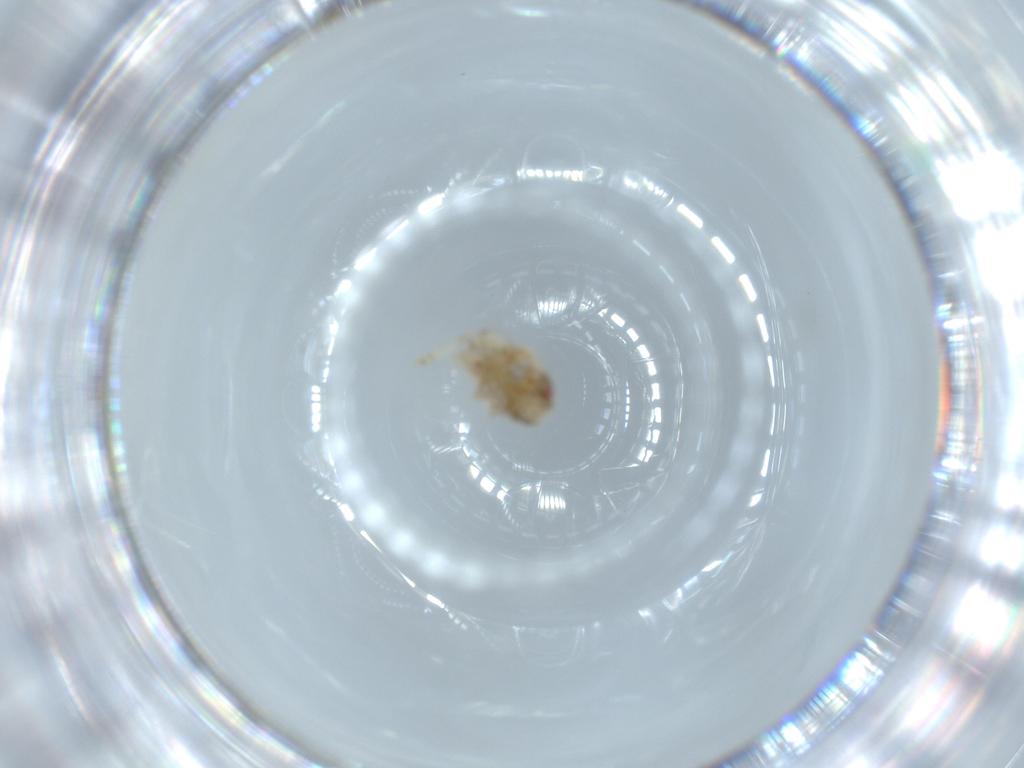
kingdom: Animalia
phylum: Arthropoda
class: Insecta
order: Hemiptera
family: Acanaloniidae
